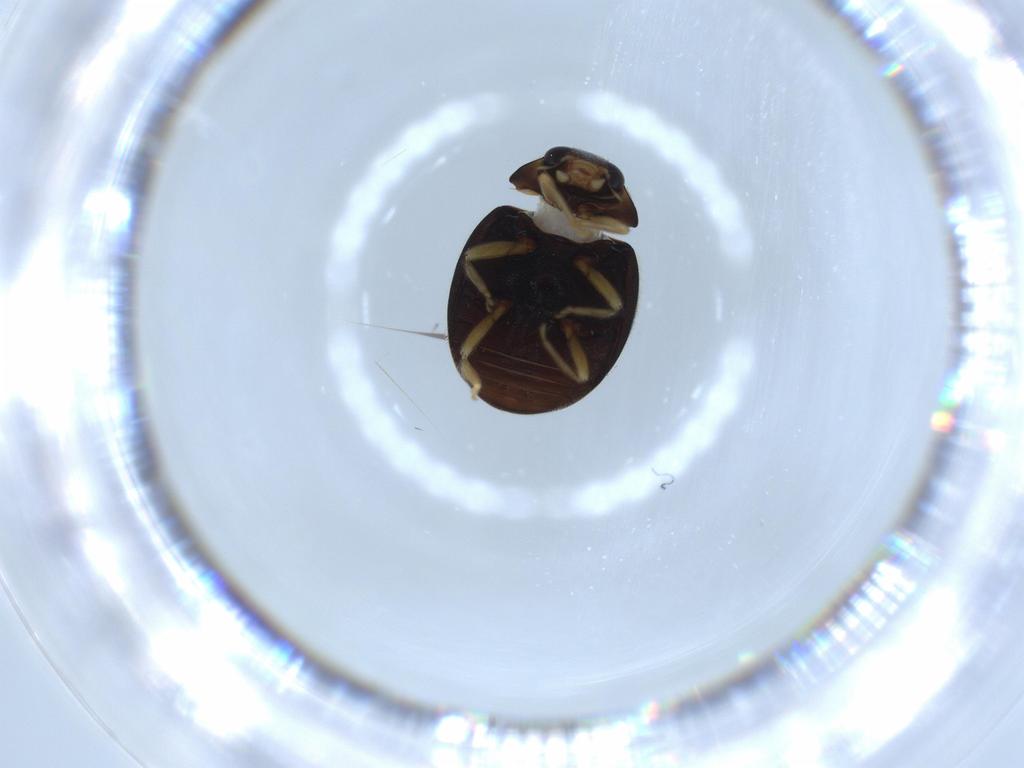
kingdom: Animalia
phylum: Arthropoda
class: Insecta
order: Coleoptera
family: Coccinellidae
